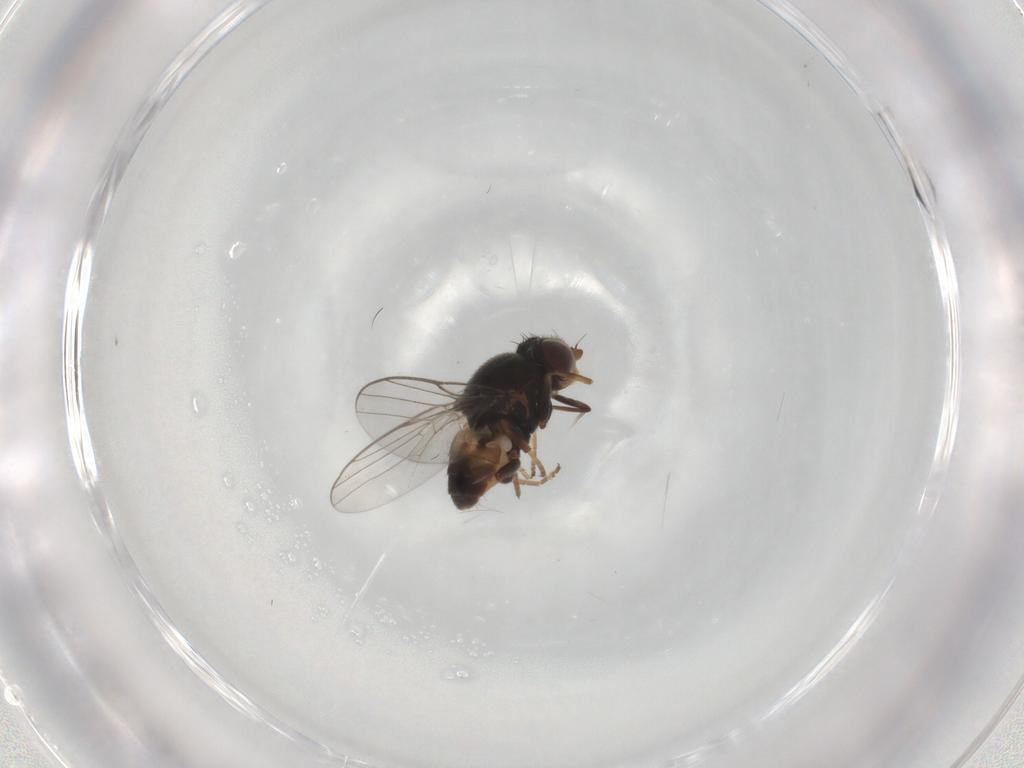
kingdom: Animalia
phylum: Arthropoda
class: Insecta
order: Diptera
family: Chloropidae
